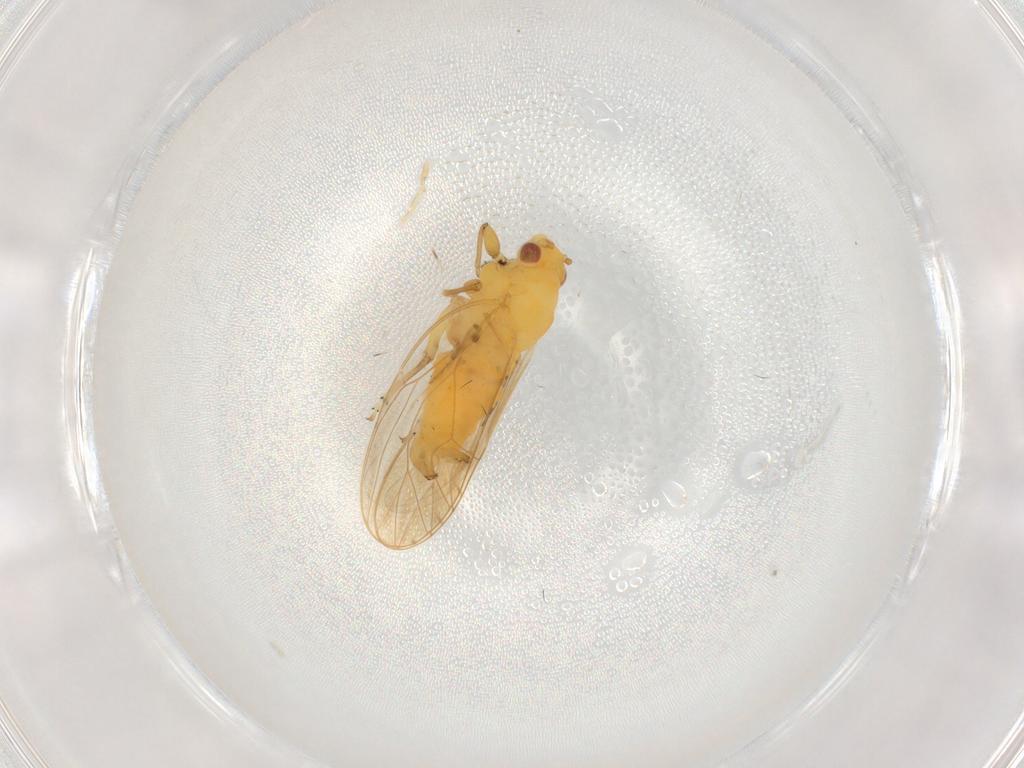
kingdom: Animalia
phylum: Arthropoda
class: Insecta
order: Hemiptera
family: Psyllidae
